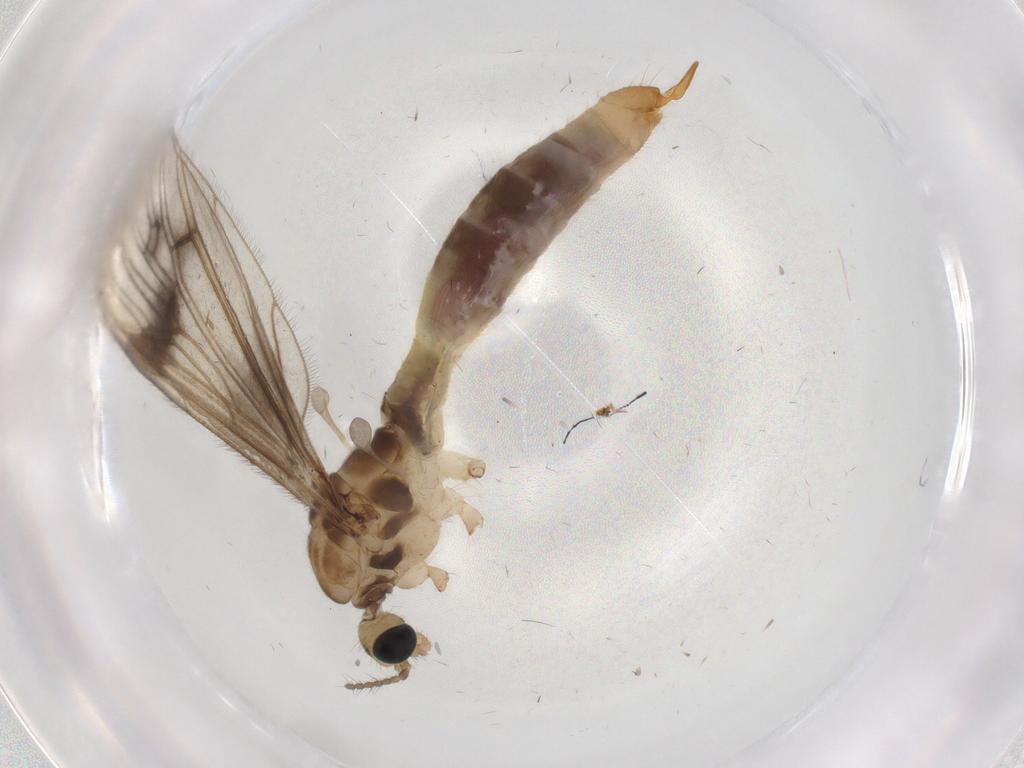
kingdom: Animalia
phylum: Arthropoda
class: Insecta
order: Diptera
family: Limoniidae
